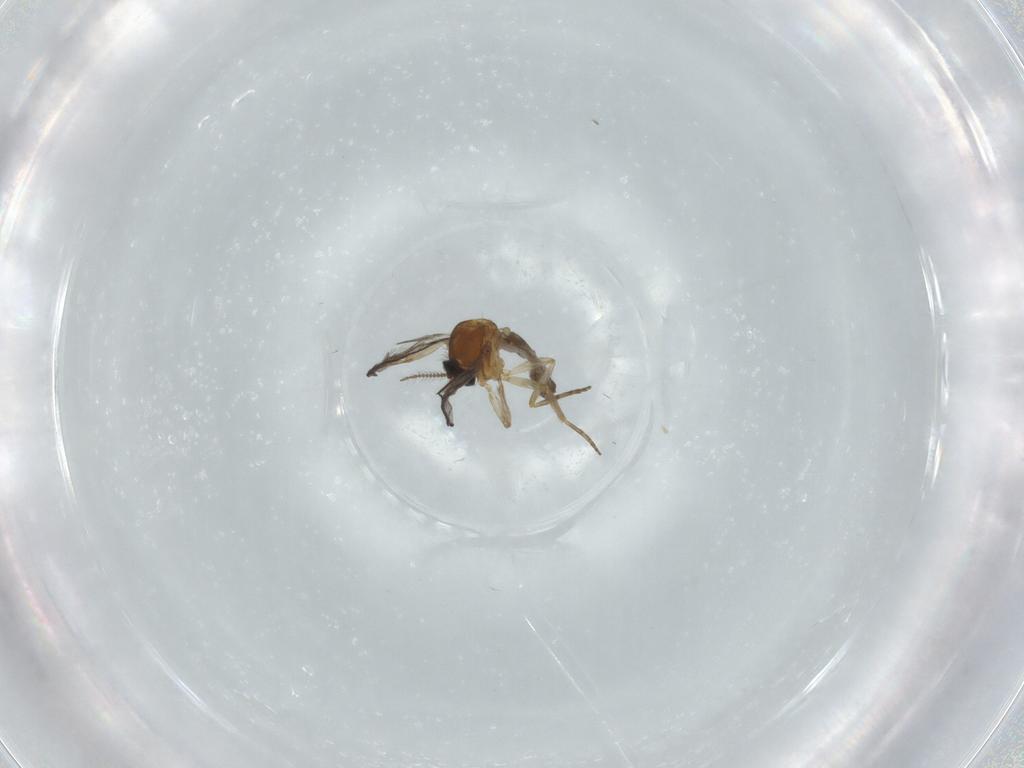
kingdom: Animalia
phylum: Arthropoda
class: Insecta
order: Diptera
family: Ceratopogonidae
